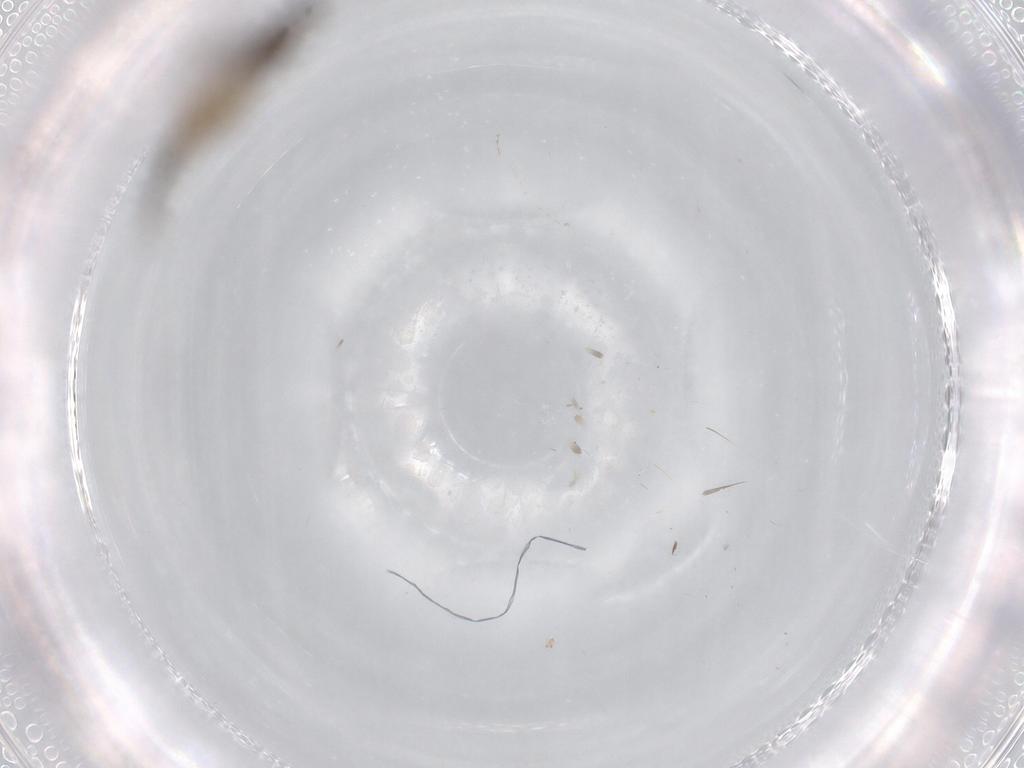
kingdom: Animalia
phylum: Arthropoda
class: Insecta
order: Diptera
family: Cecidomyiidae
